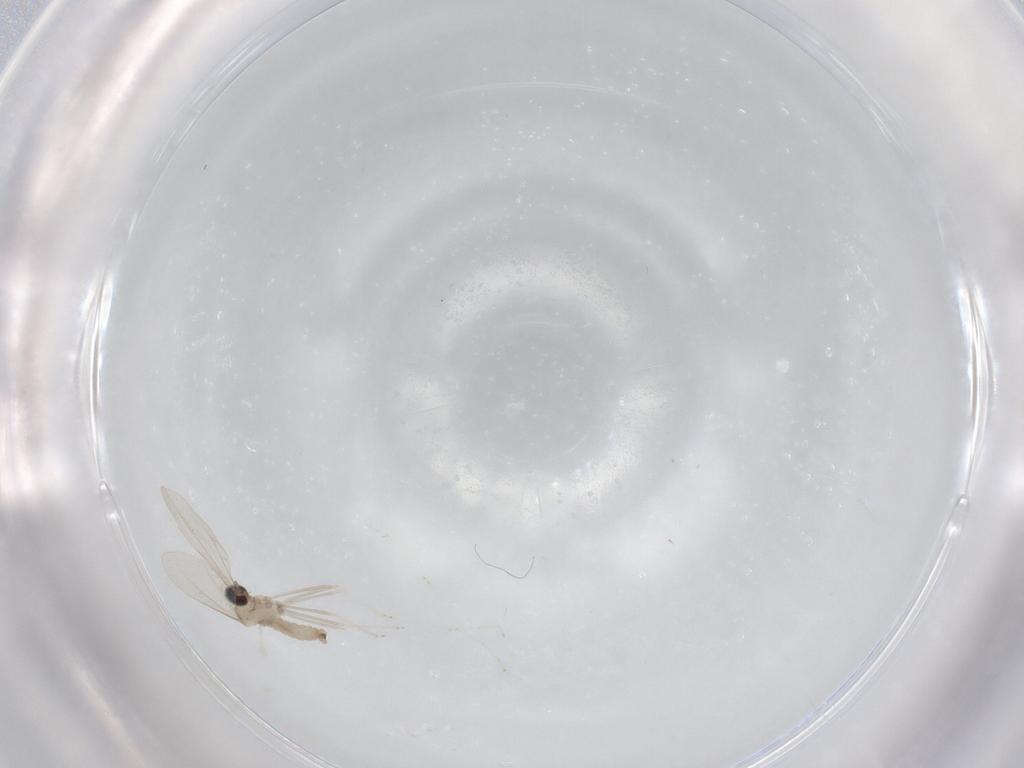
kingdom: Animalia
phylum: Arthropoda
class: Insecta
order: Diptera
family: Cecidomyiidae
